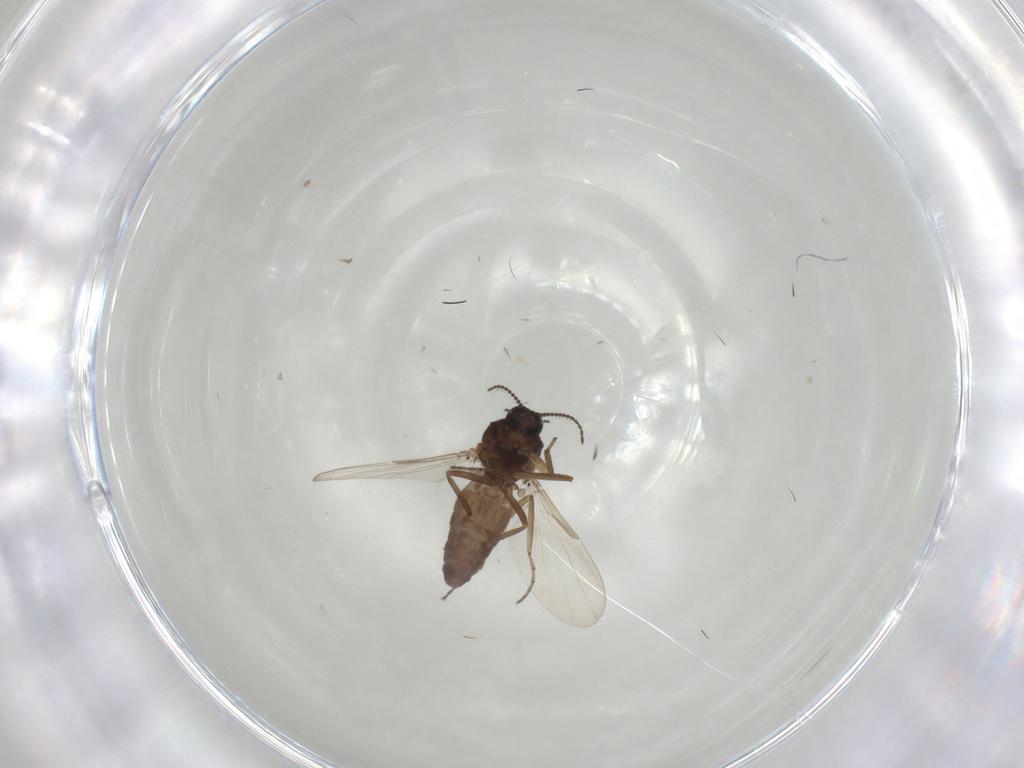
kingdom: Animalia
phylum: Arthropoda
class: Insecta
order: Diptera
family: Ceratopogonidae
